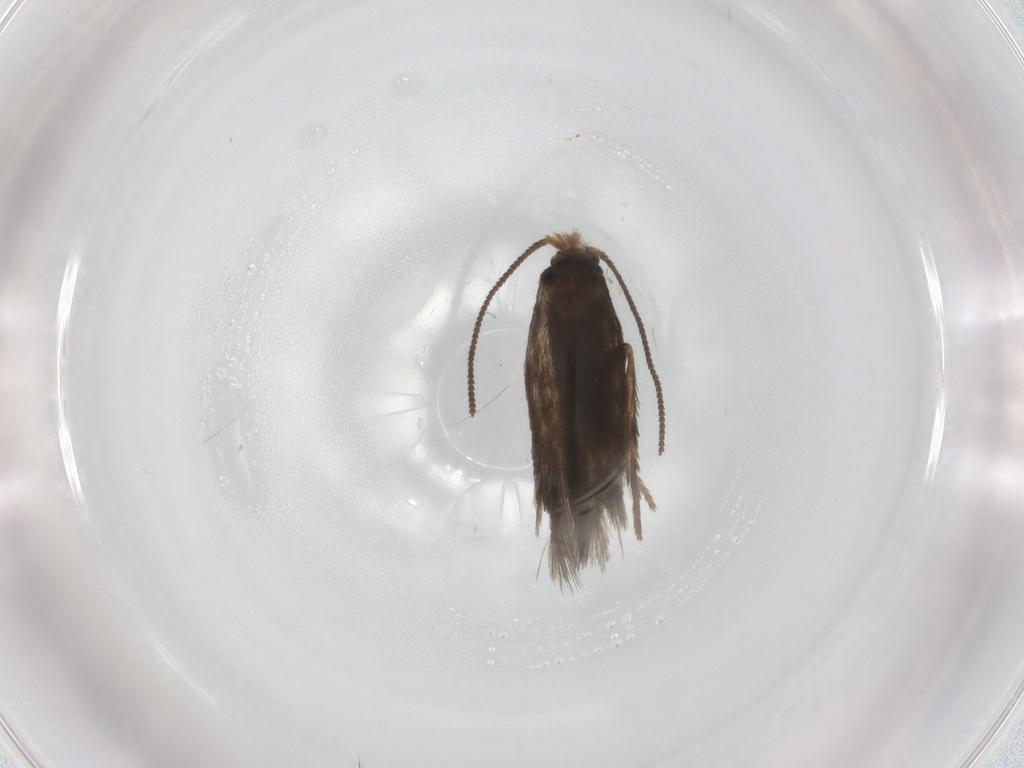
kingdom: Animalia
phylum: Arthropoda
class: Insecta
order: Lepidoptera
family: Nepticulidae
